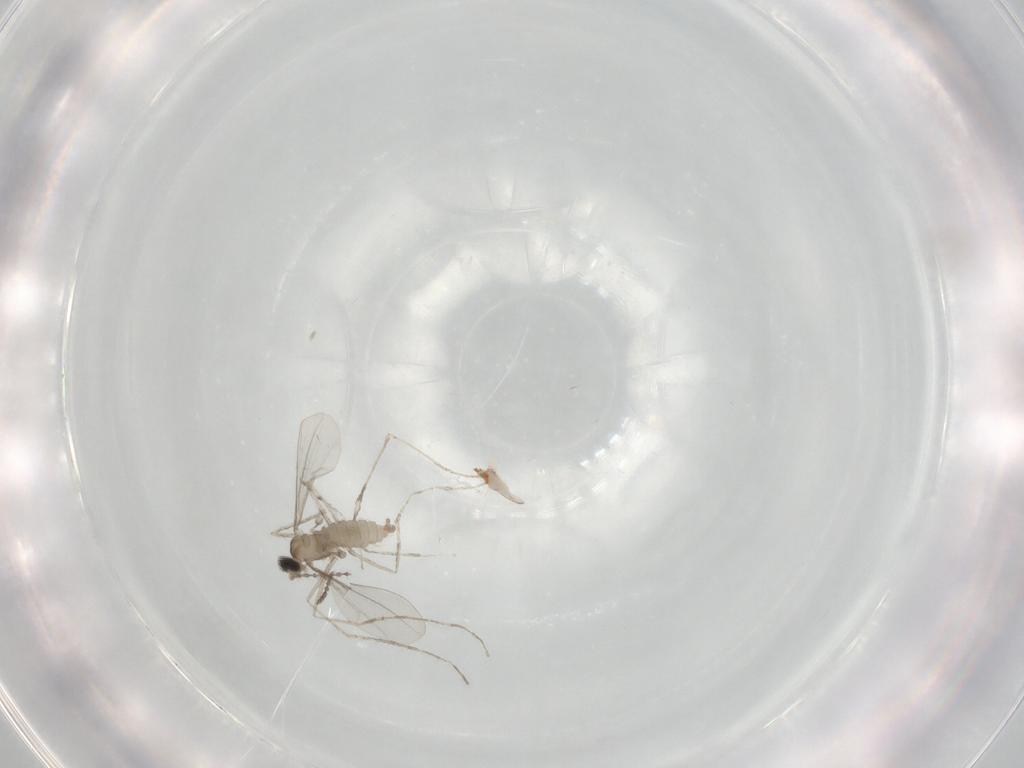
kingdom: Animalia
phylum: Arthropoda
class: Insecta
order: Diptera
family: Cecidomyiidae
